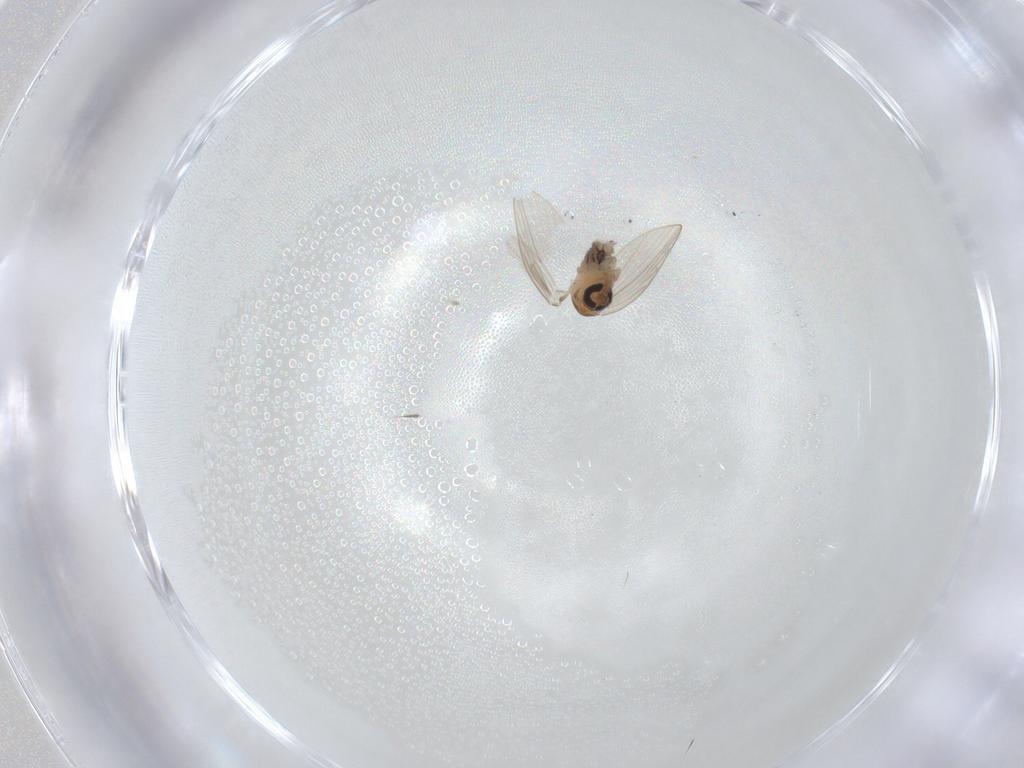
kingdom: Animalia
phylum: Arthropoda
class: Insecta
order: Diptera
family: Psychodidae
